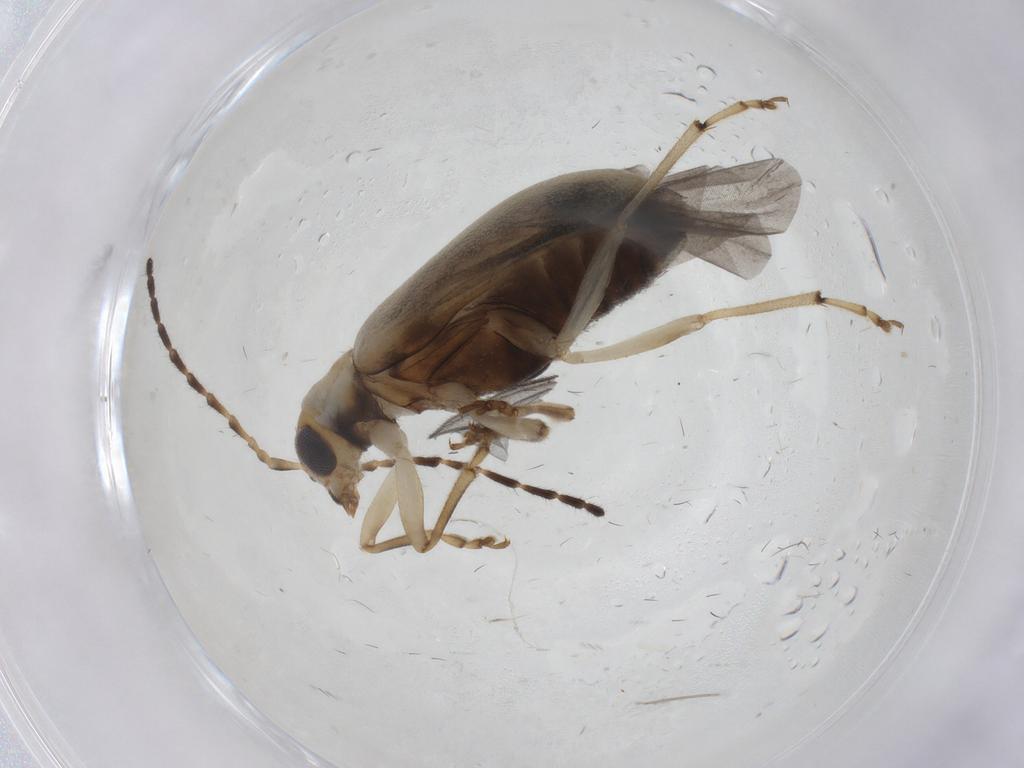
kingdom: Animalia
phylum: Arthropoda
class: Insecta
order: Coleoptera
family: Chrysomelidae
